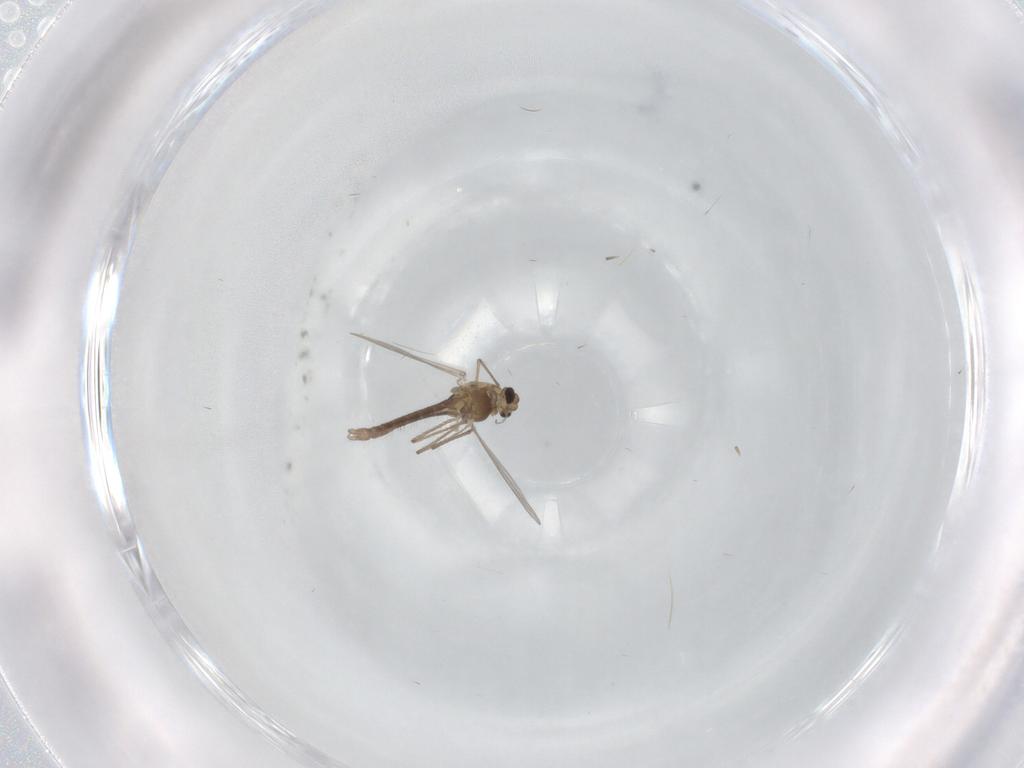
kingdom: Animalia
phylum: Arthropoda
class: Insecta
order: Diptera
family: Chironomidae
